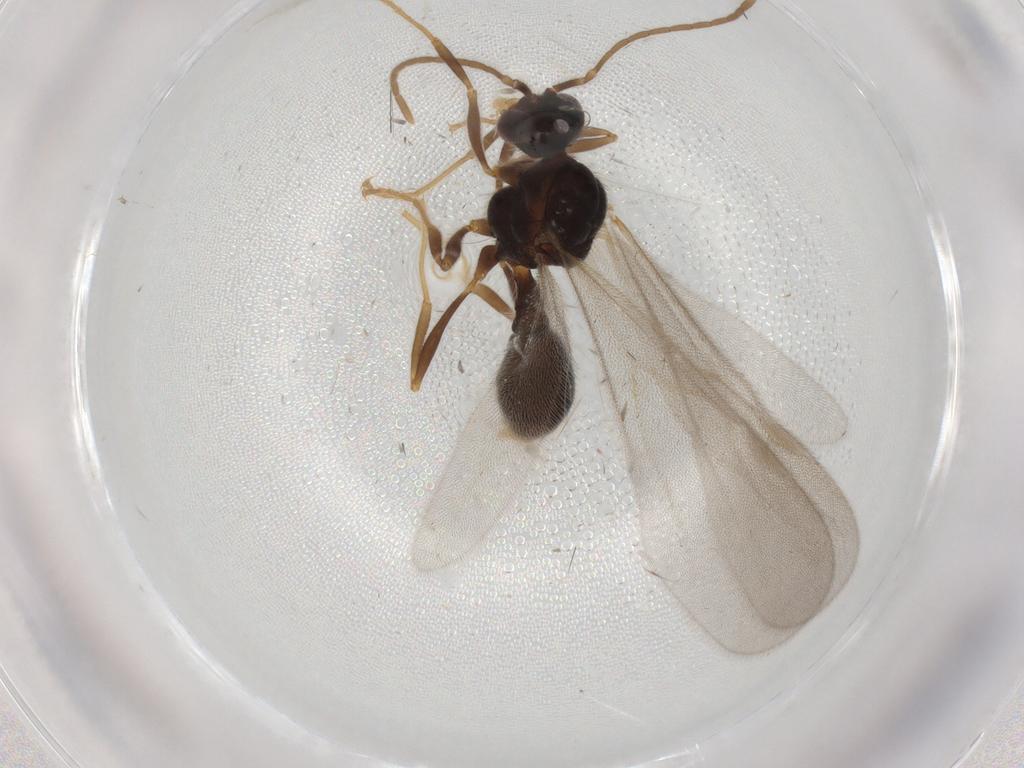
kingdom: Animalia
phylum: Arthropoda
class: Insecta
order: Hymenoptera
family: Formicidae
